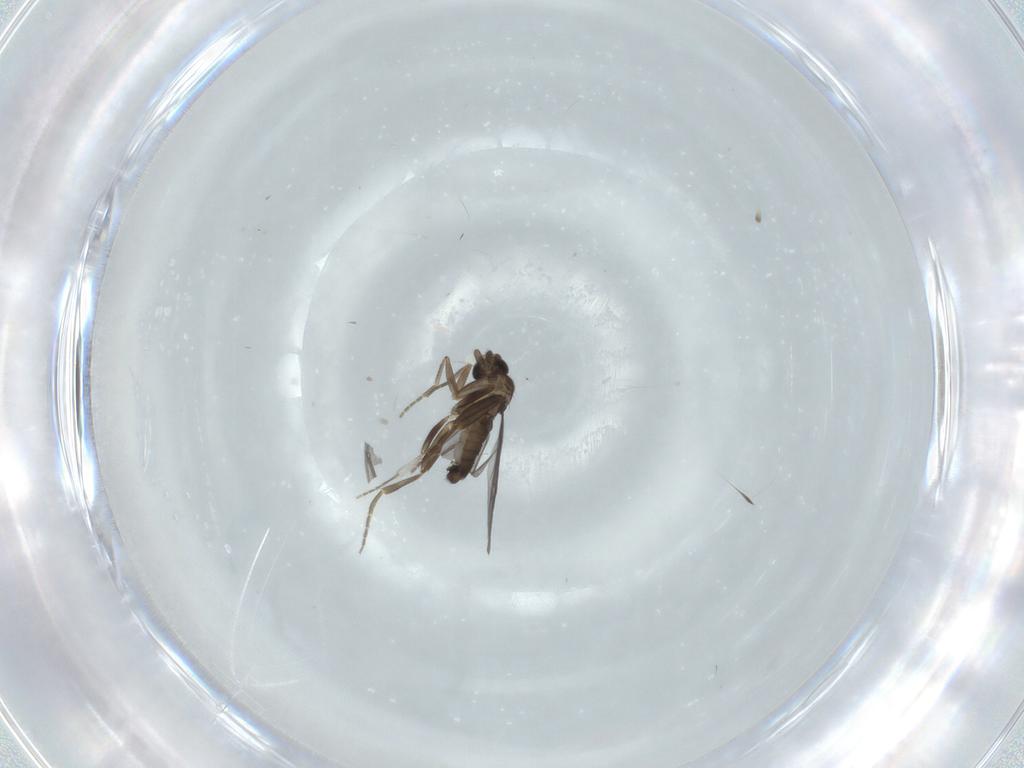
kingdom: Animalia
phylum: Arthropoda
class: Insecta
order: Diptera
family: Phoridae
